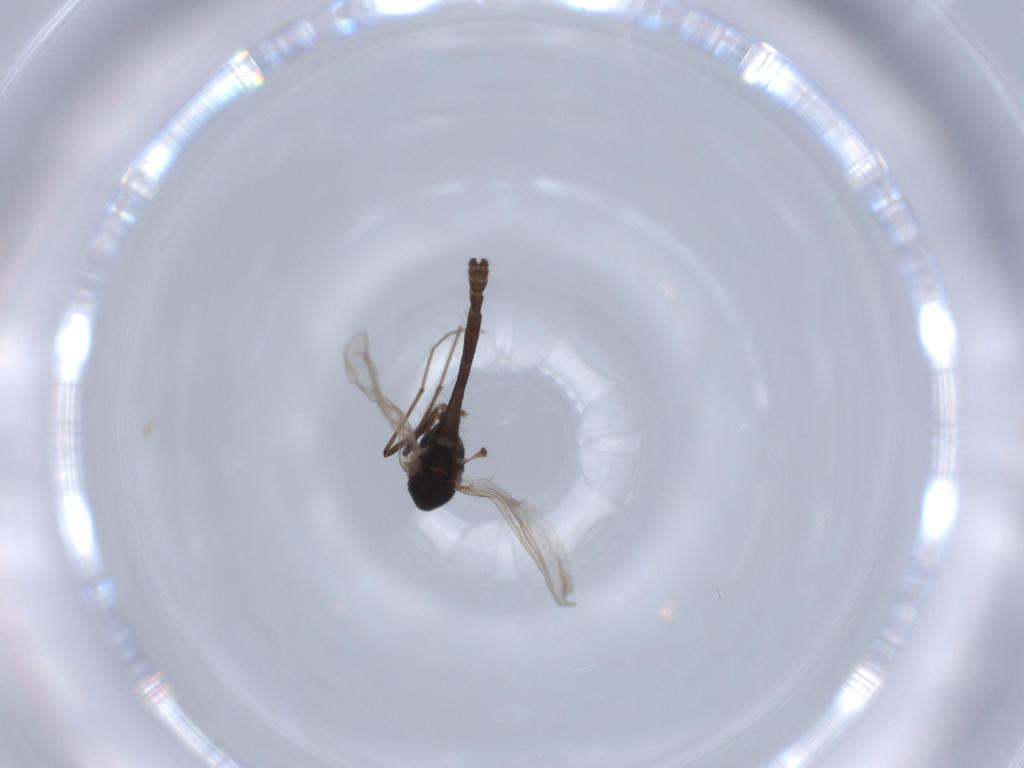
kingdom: Animalia
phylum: Arthropoda
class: Insecta
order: Diptera
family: Chironomidae
